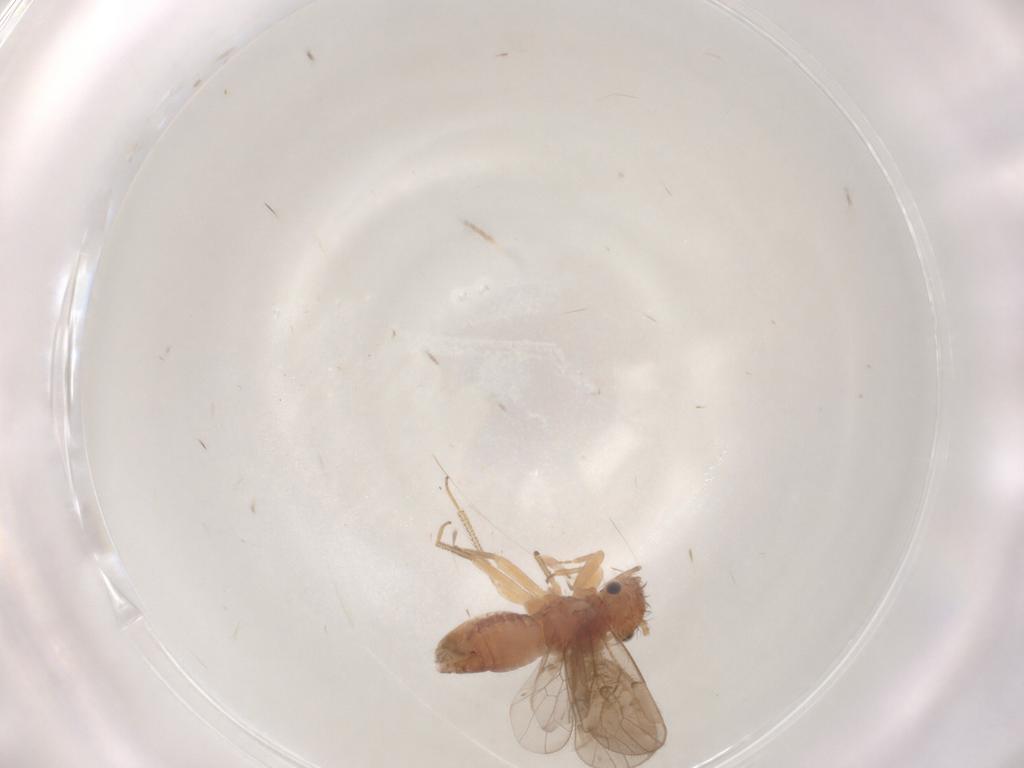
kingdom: Animalia
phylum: Arthropoda
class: Insecta
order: Psocodea
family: Ectopsocidae
